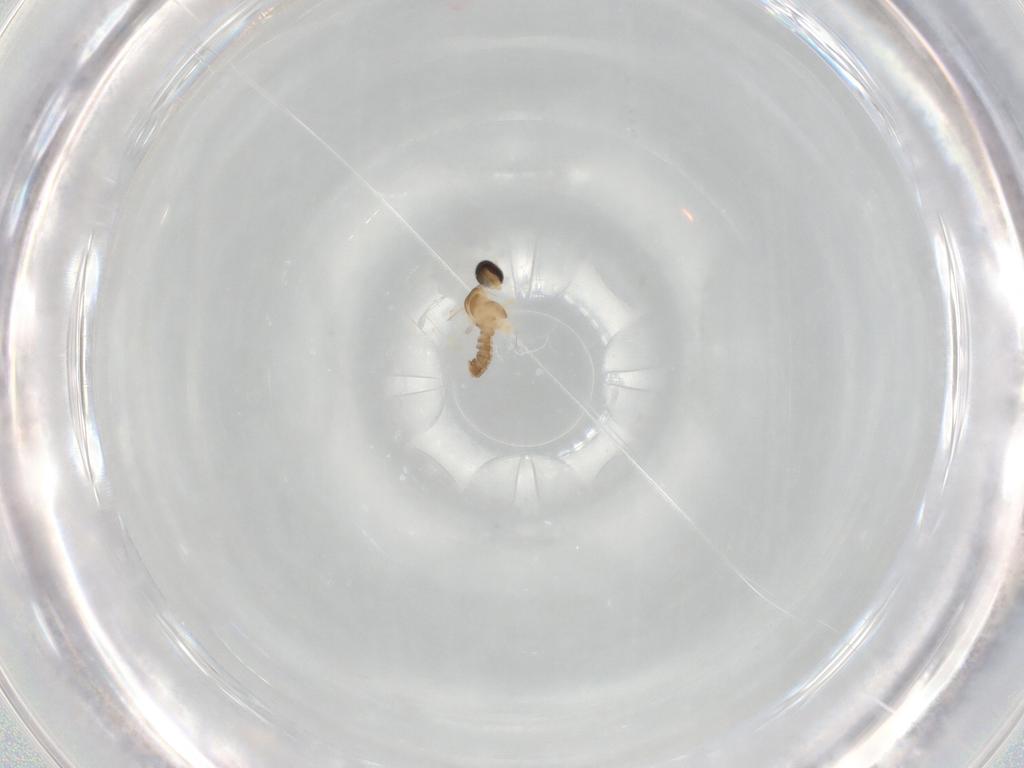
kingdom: Animalia
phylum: Arthropoda
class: Insecta
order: Diptera
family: Cecidomyiidae
